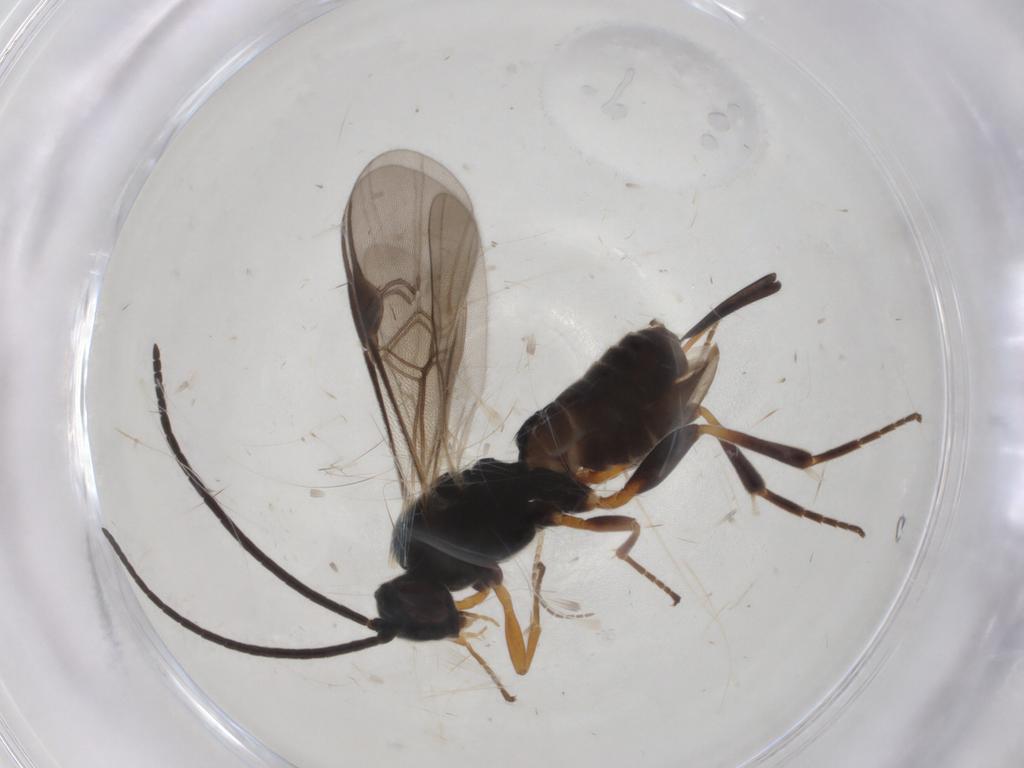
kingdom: Animalia
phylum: Arthropoda
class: Insecta
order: Hymenoptera
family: Braconidae
